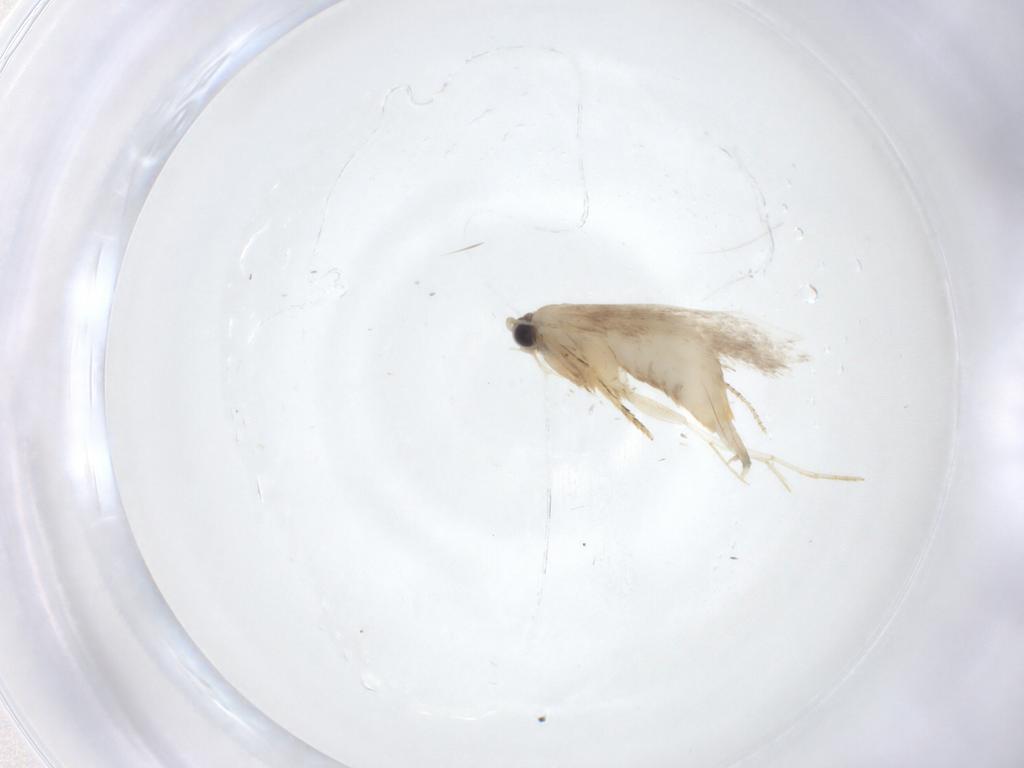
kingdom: Animalia
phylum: Arthropoda
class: Insecta
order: Lepidoptera
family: Tineidae
